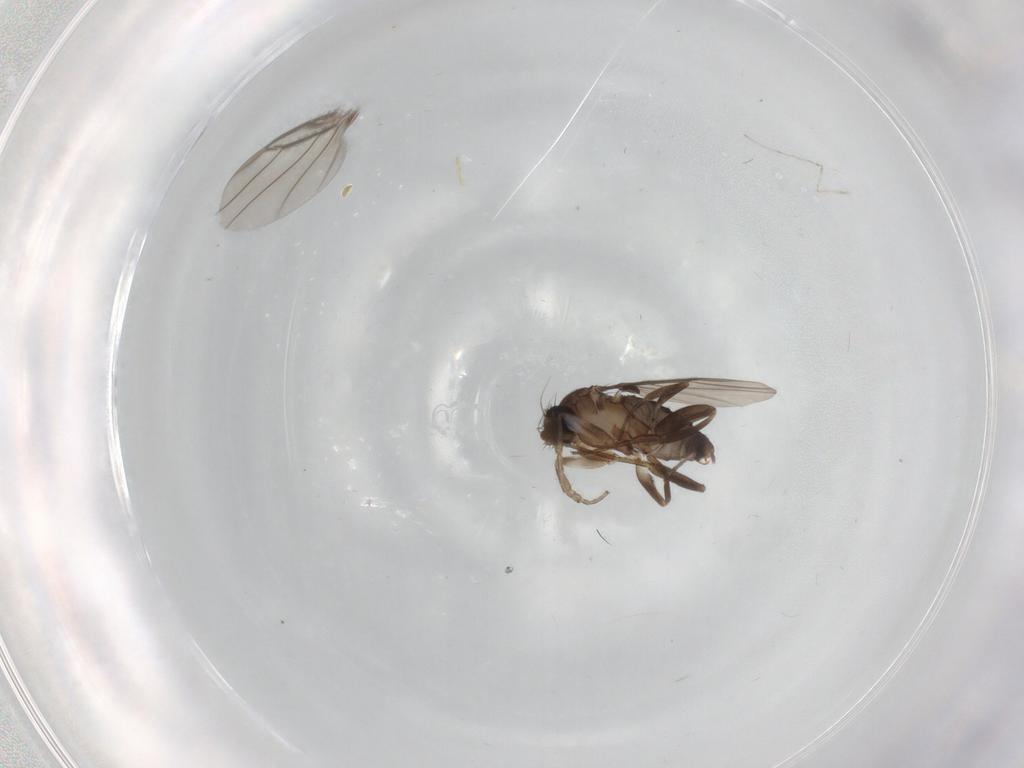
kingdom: Animalia
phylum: Arthropoda
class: Insecta
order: Diptera
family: Phoridae
